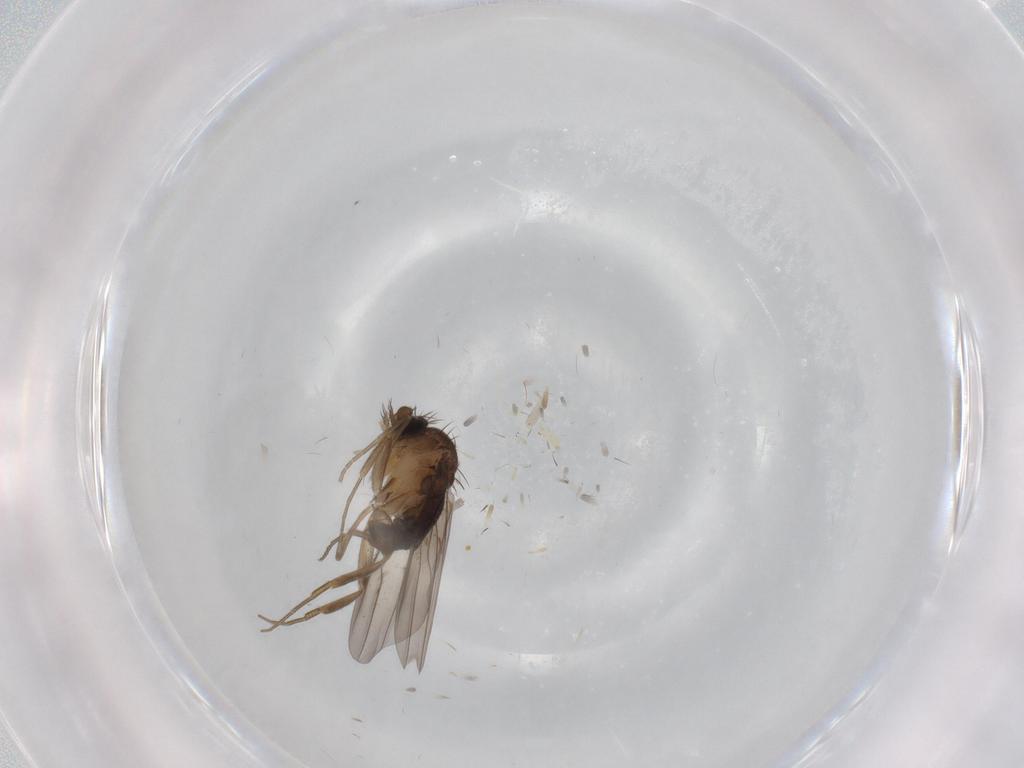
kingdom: Animalia
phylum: Arthropoda
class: Insecta
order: Diptera
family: Phoridae
